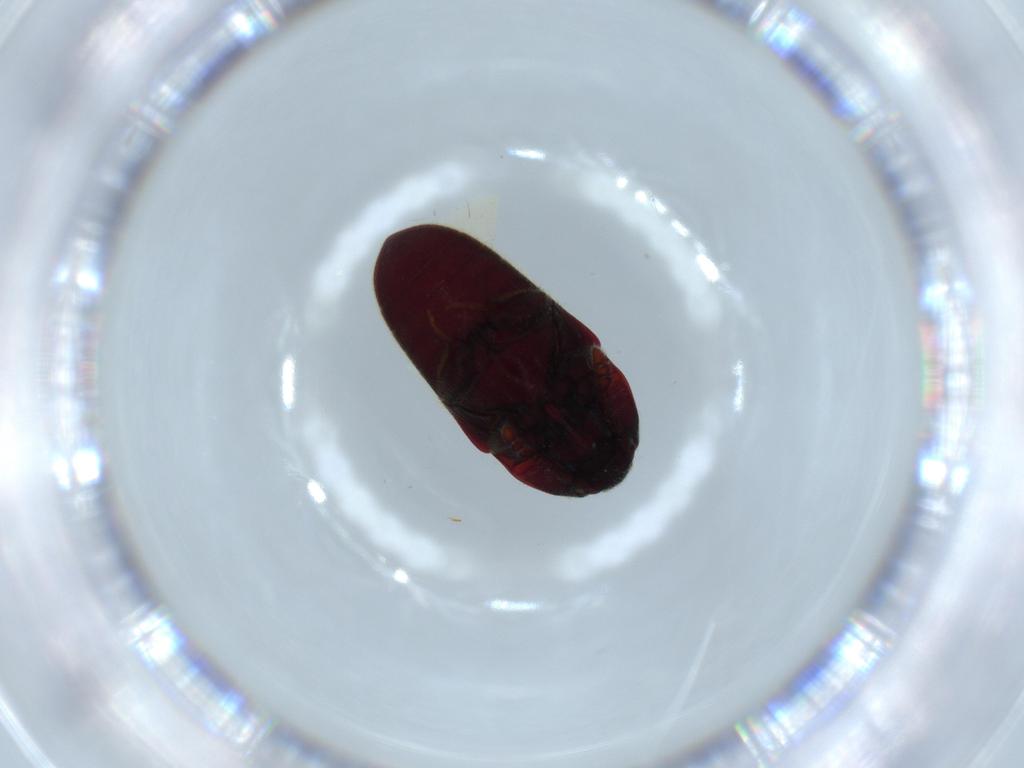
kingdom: Animalia
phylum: Arthropoda
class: Insecta
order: Coleoptera
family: Throscidae
